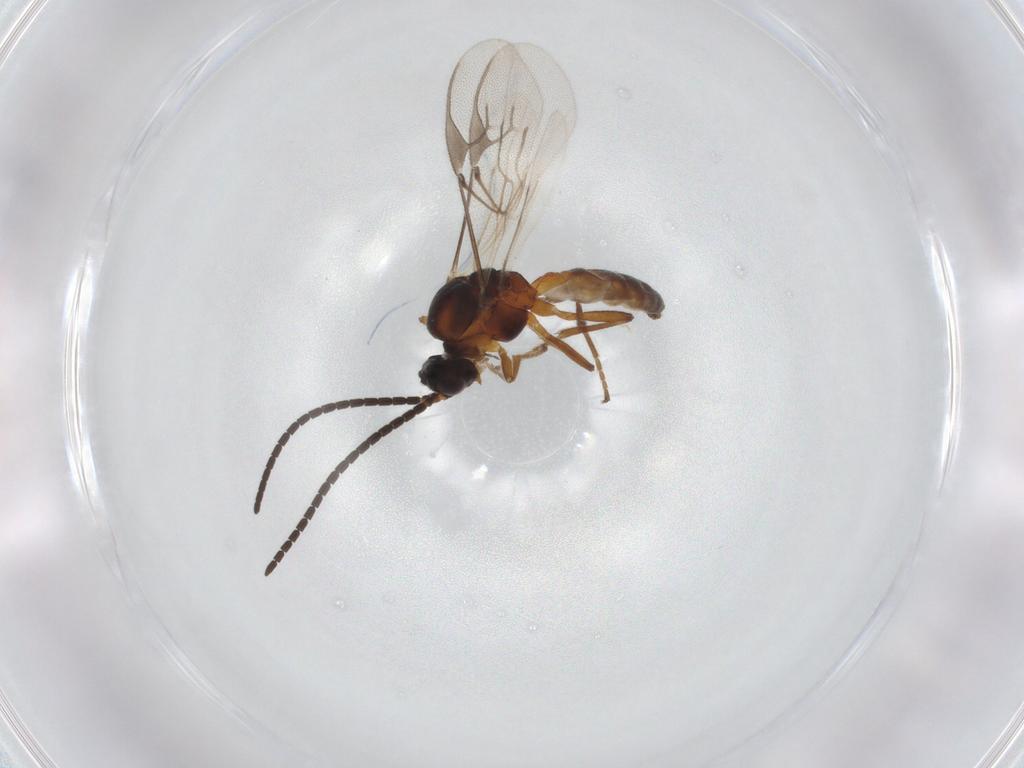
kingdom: Animalia
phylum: Arthropoda
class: Insecta
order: Hymenoptera
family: Braconidae
